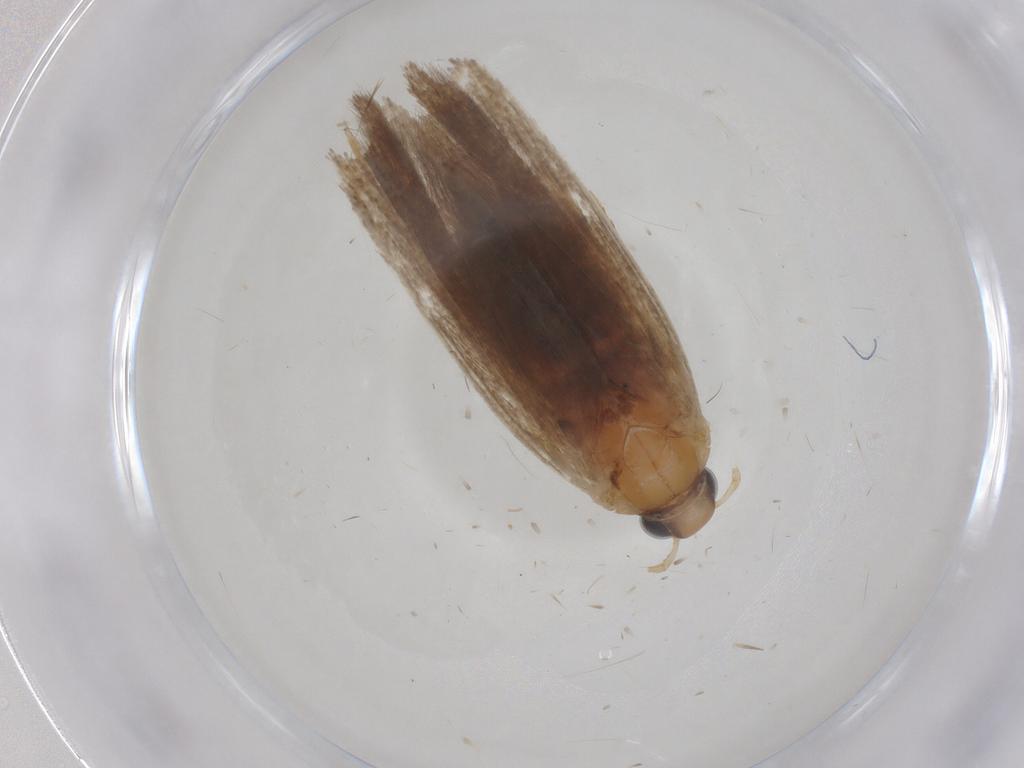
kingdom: Animalia
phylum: Arthropoda
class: Insecta
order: Lepidoptera
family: Gelechiidae
